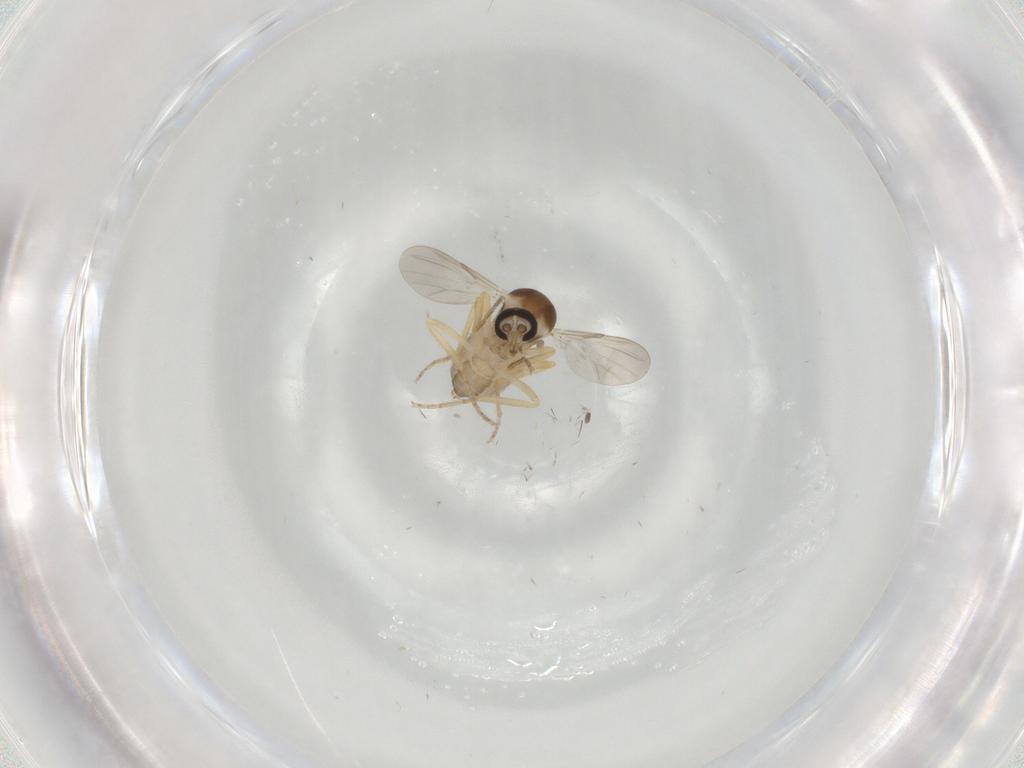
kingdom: Animalia
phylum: Arthropoda
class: Insecta
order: Diptera
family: Ceratopogonidae
